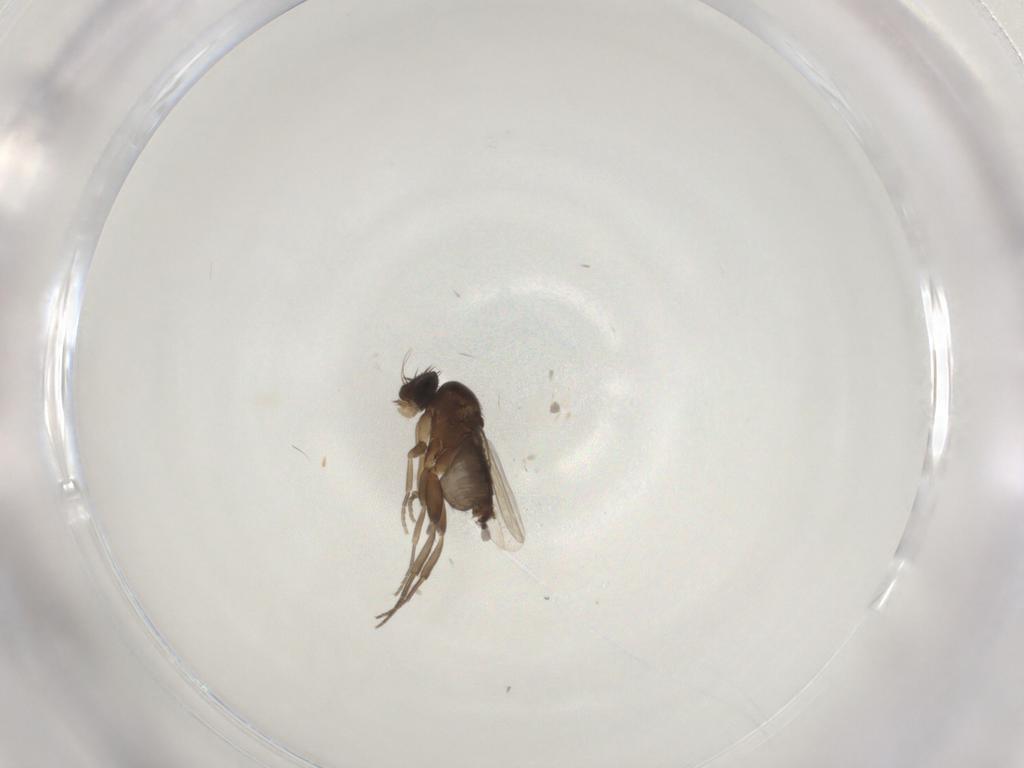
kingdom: Animalia
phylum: Arthropoda
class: Insecta
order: Diptera
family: Phoridae
